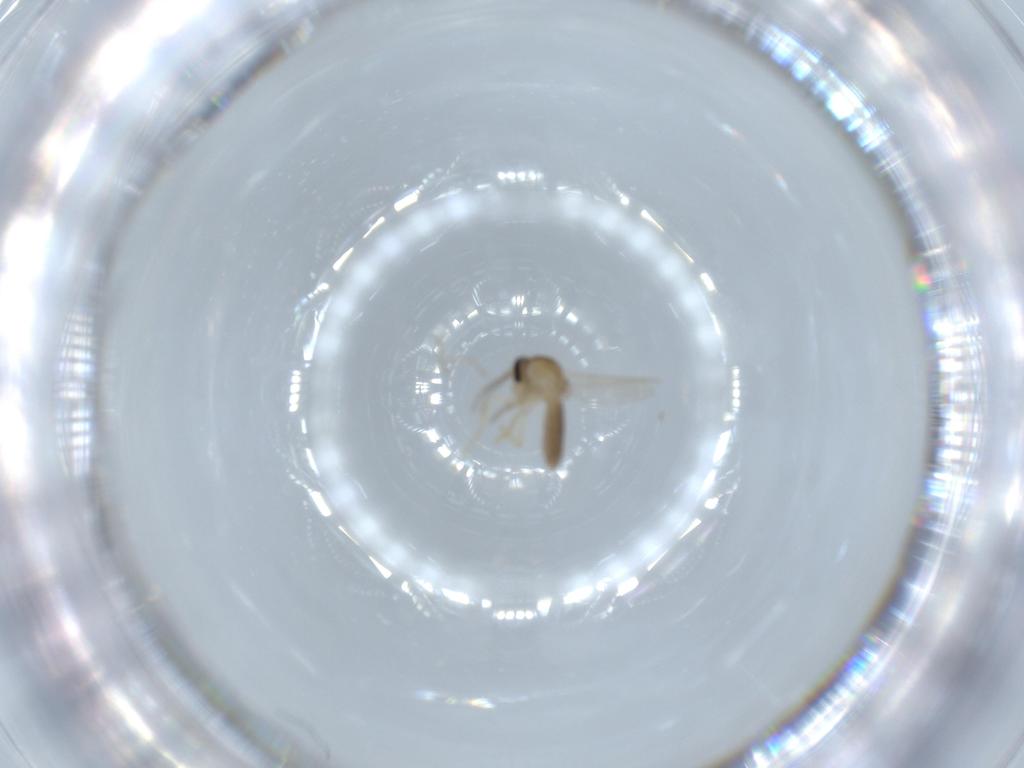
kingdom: Animalia
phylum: Arthropoda
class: Insecta
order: Diptera
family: Ceratopogonidae
